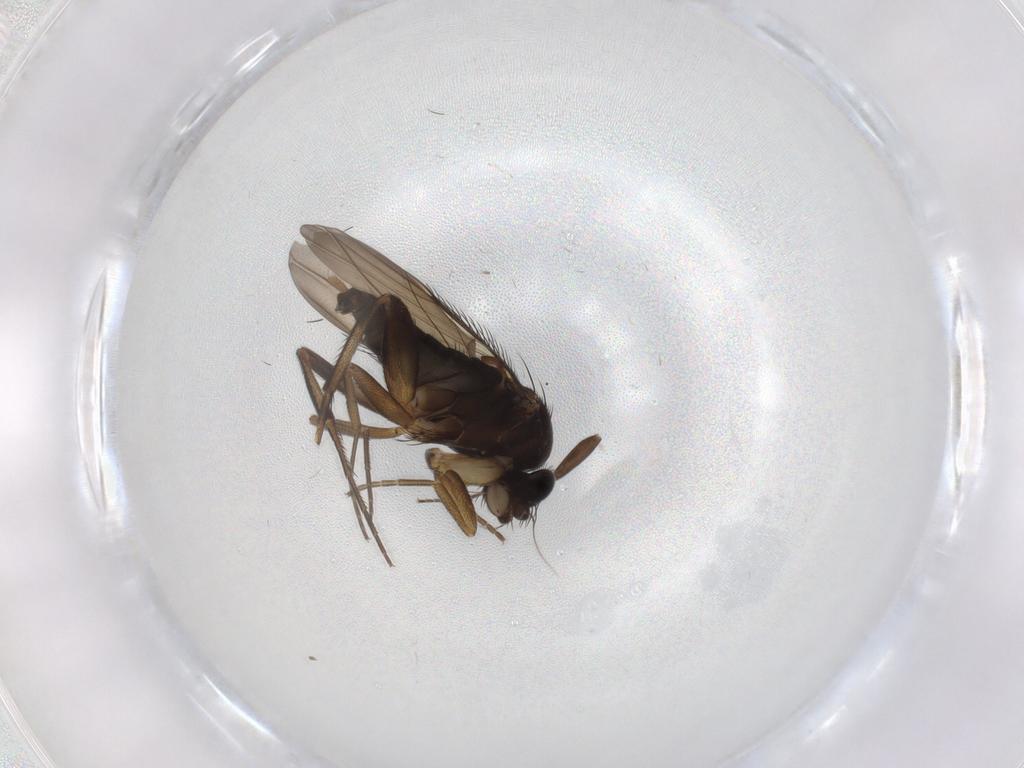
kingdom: Animalia
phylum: Arthropoda
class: Insecta
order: Diptera
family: Phoridae
